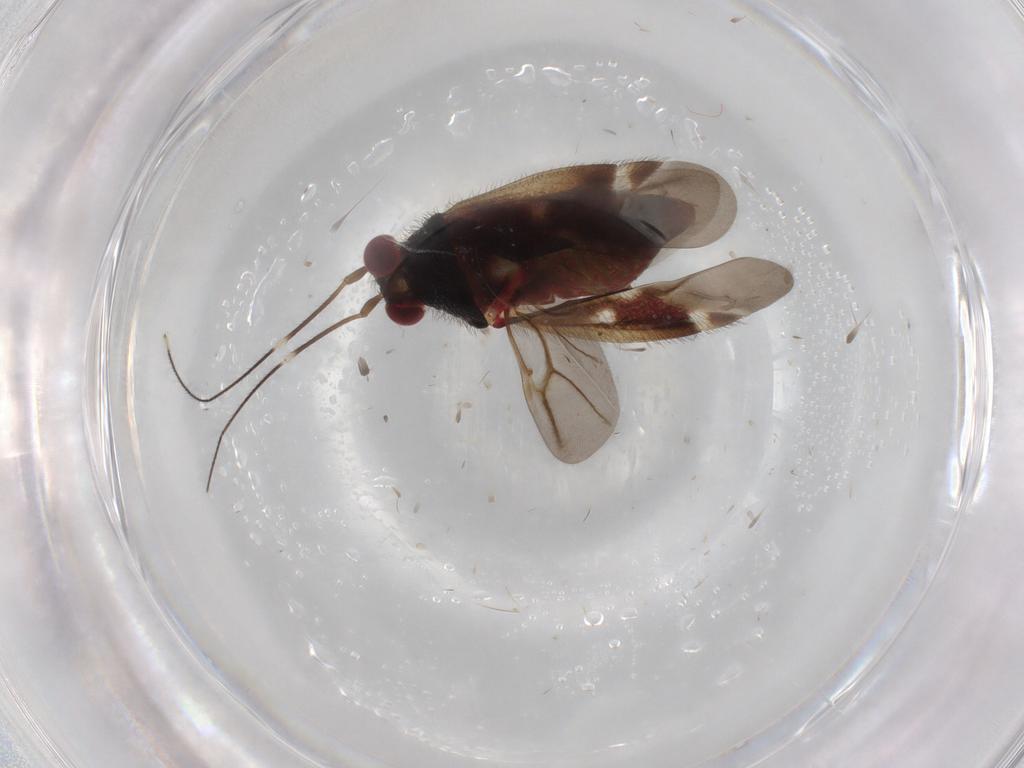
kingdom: Animalia
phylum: Arthropoda
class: Insecta
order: Hemiptera
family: Miridae
